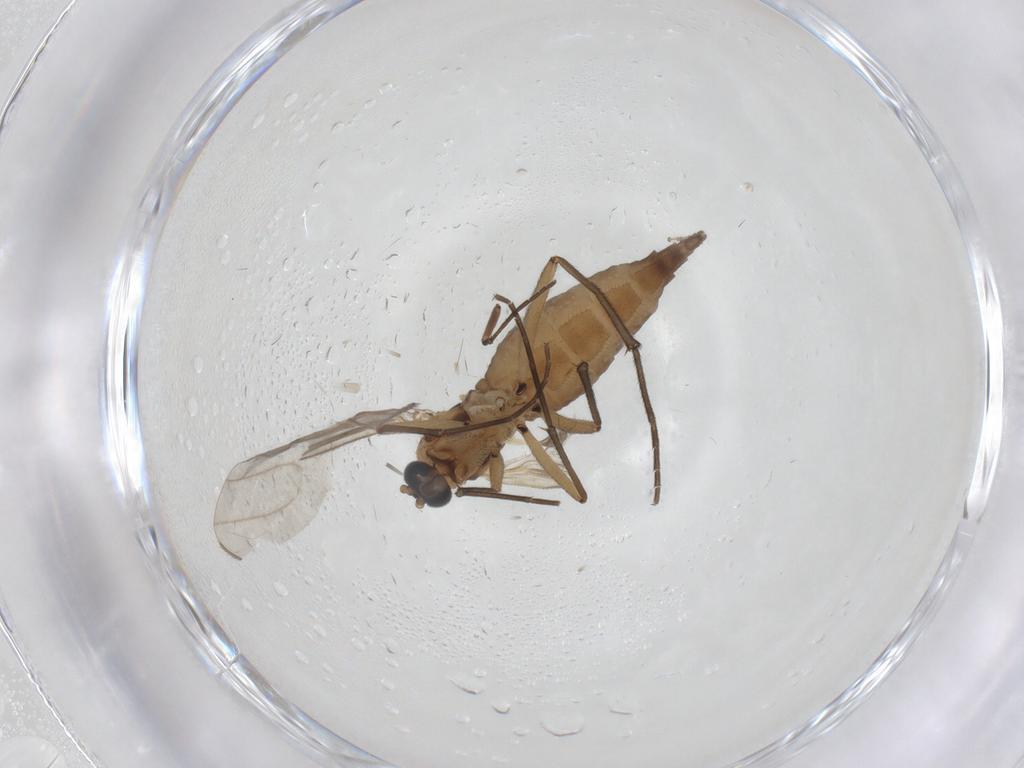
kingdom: Animalia
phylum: Arthropoda
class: Insecta
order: Diptera
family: Sciaridae
